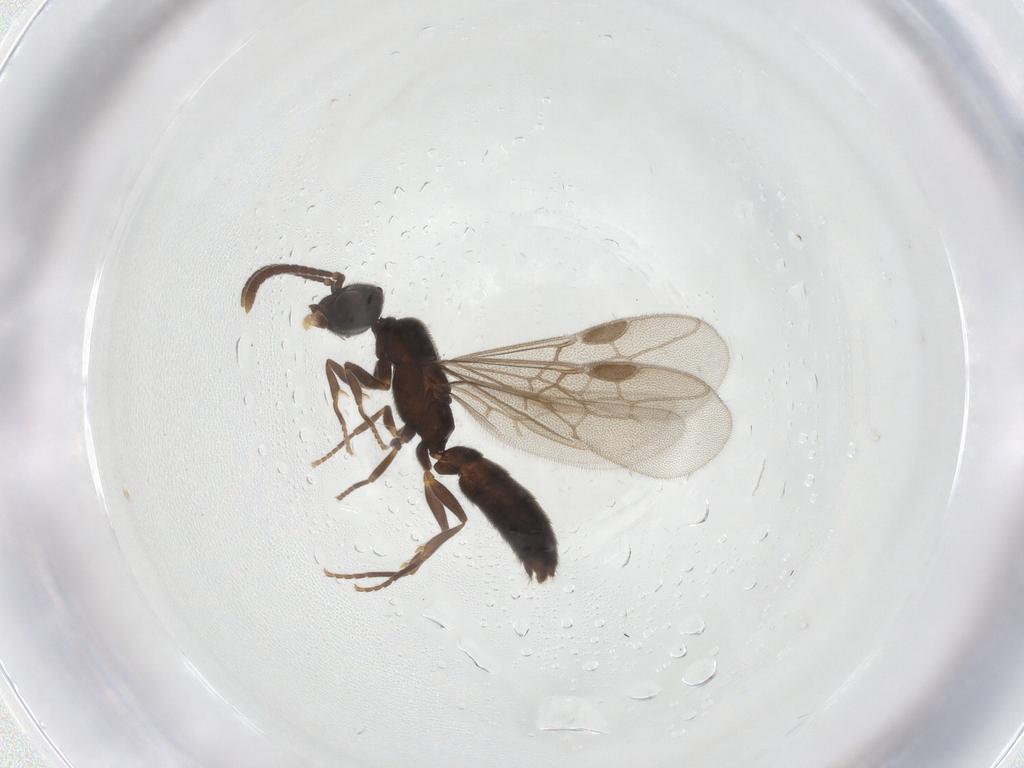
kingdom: Animalia
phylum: Arthropoda
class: Insecta
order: Hymenoptera
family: Formicidae
